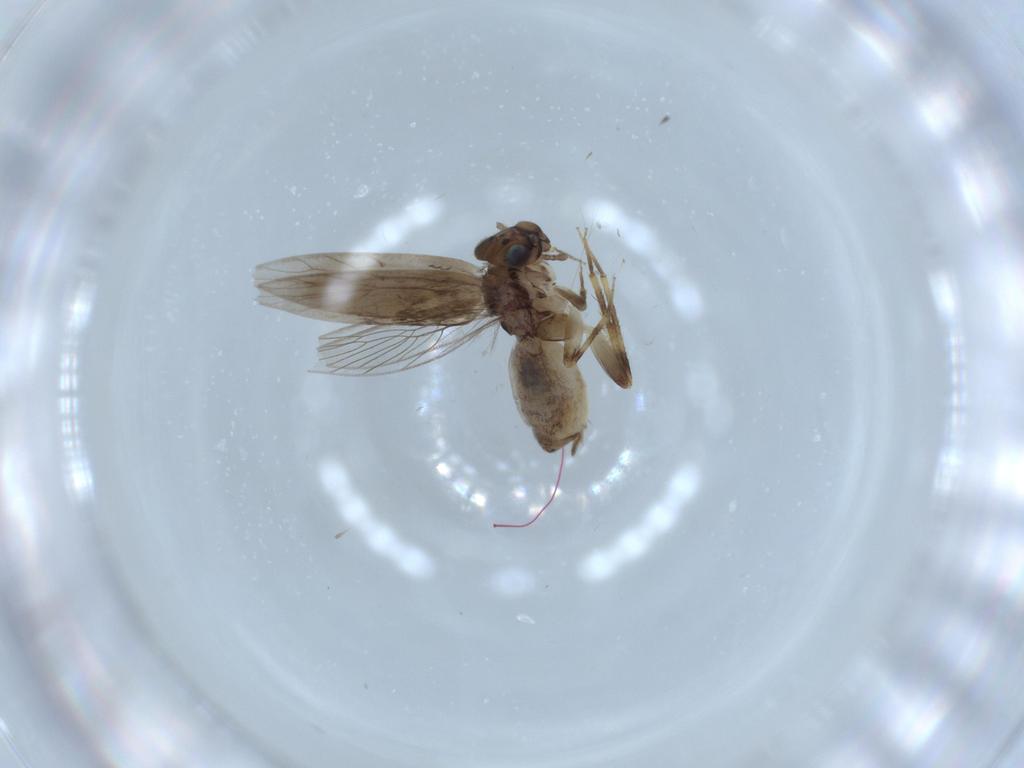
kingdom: Animalia
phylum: Arthropoda
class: Insecta
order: Psocodea
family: Lepidopsocidae
